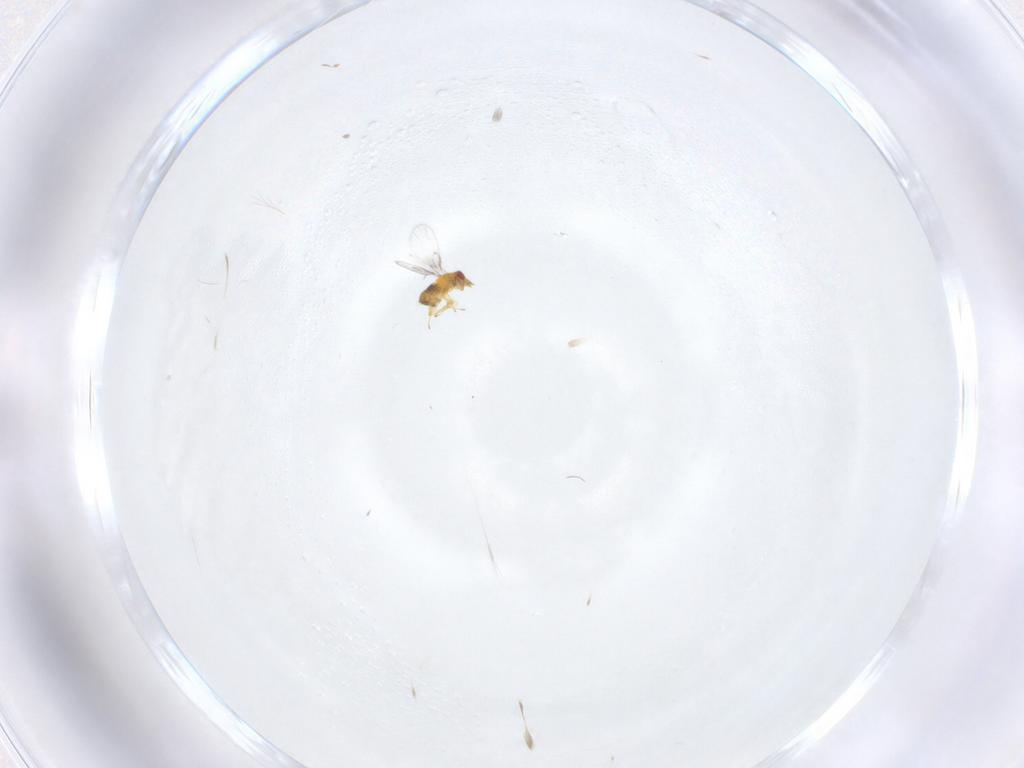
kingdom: Animalia
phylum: Arthropoda
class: Insecta
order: Hymenoptera
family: Trichogrammatidae
